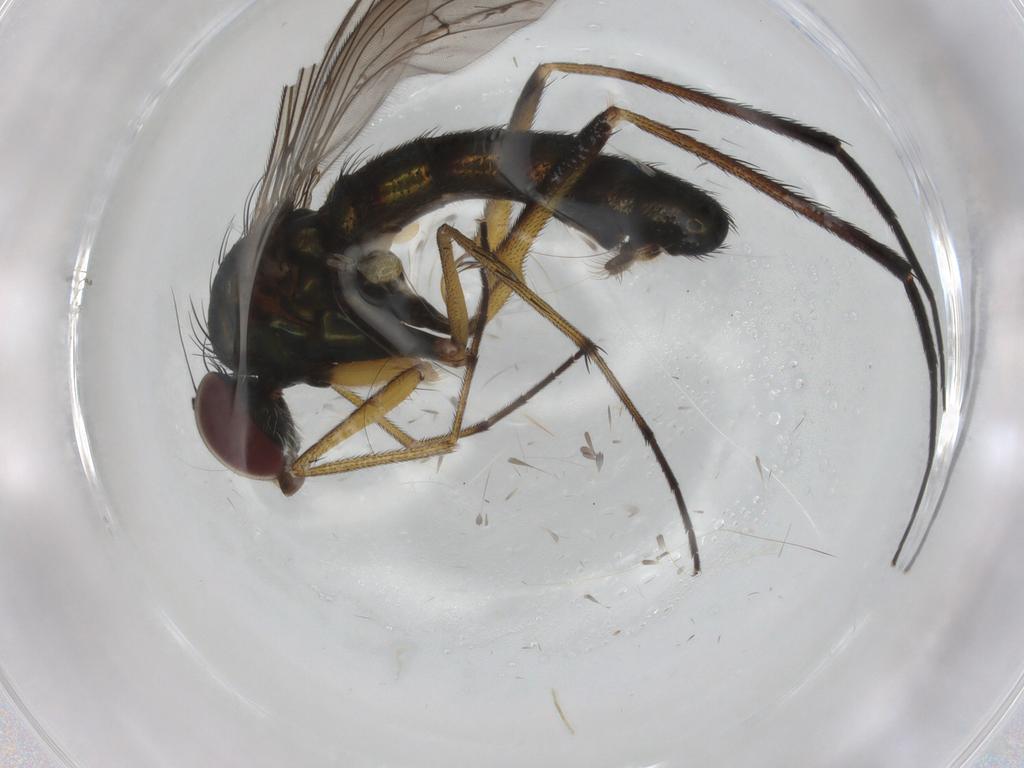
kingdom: Animalia
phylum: Arthropoda
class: Insecta
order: Diptera
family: Dolichopodidae
